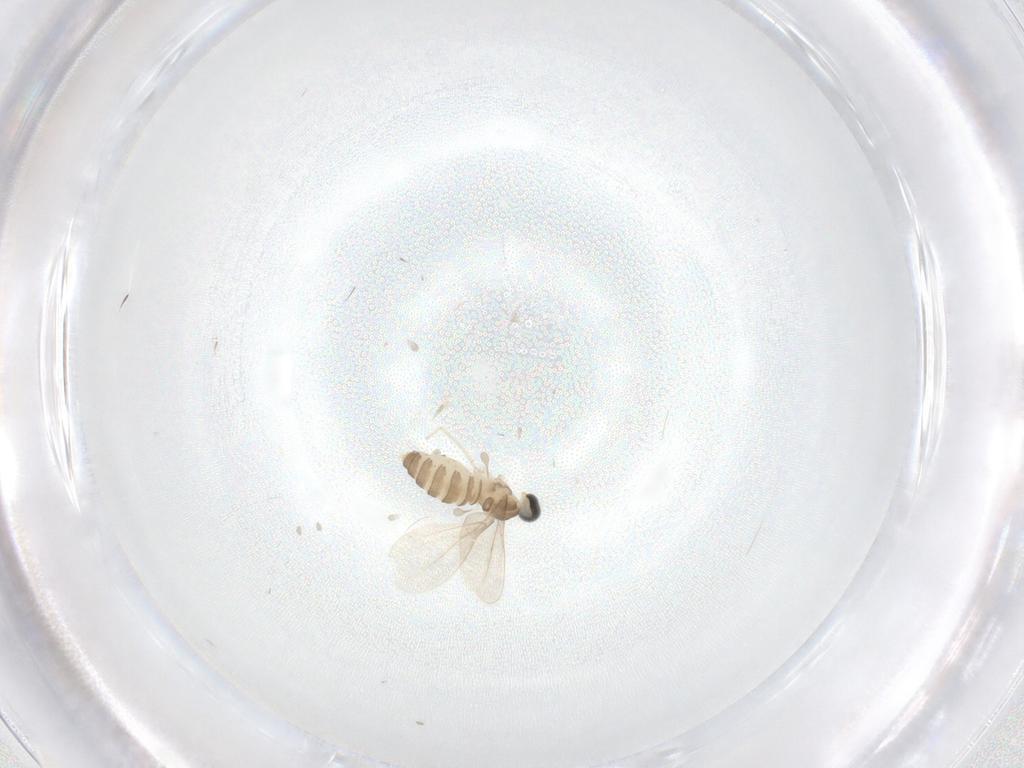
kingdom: Animalia
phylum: Arthropoda
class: Insecta
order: Diptera
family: Cecidomyiidae
